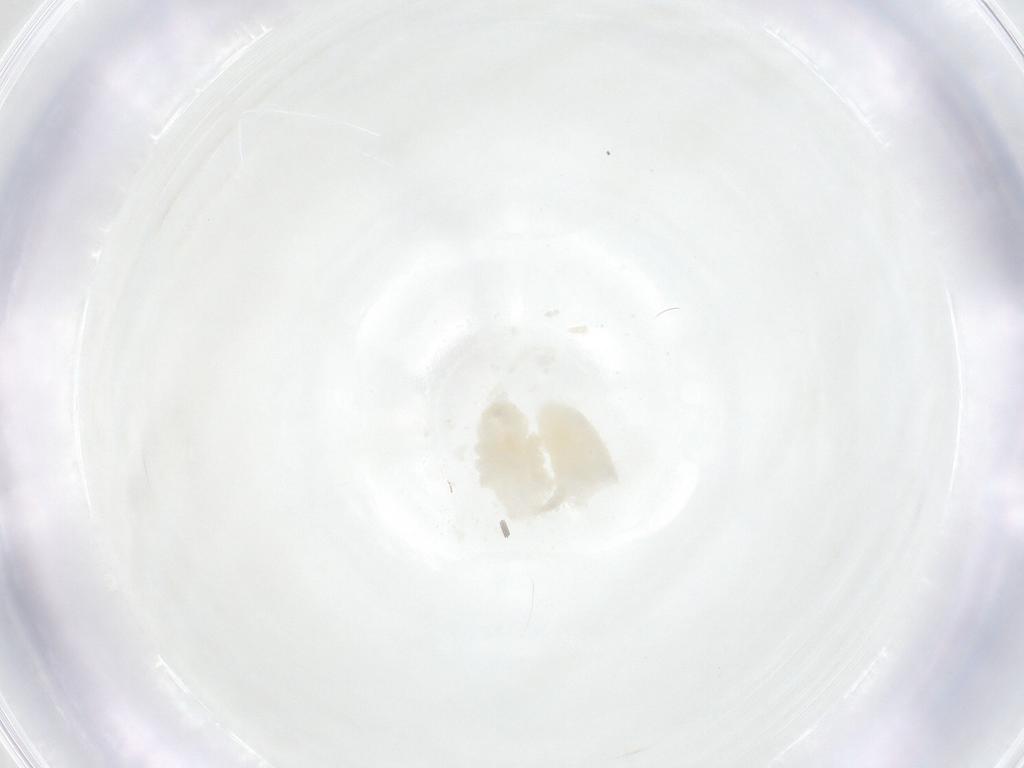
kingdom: Animalia
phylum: Arthropoda
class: Insecta
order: Diptera
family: Cecidomyiidae
